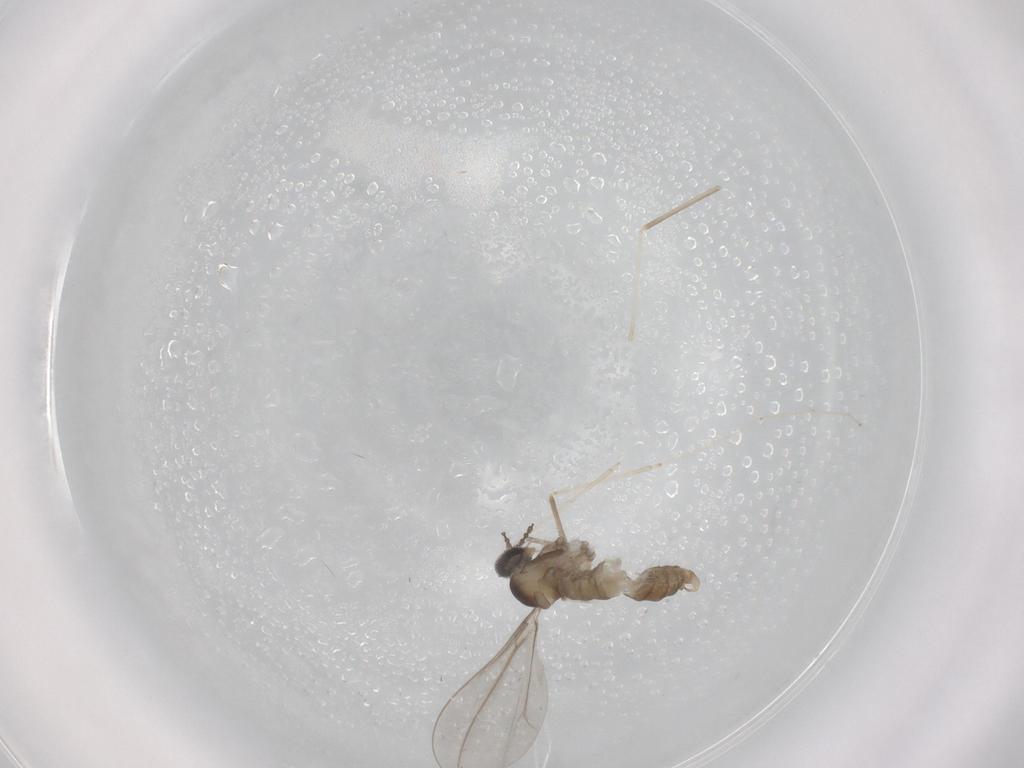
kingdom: Animalia
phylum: Arthropoda
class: Insecta
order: Diptera
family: Cecidomyiidae
